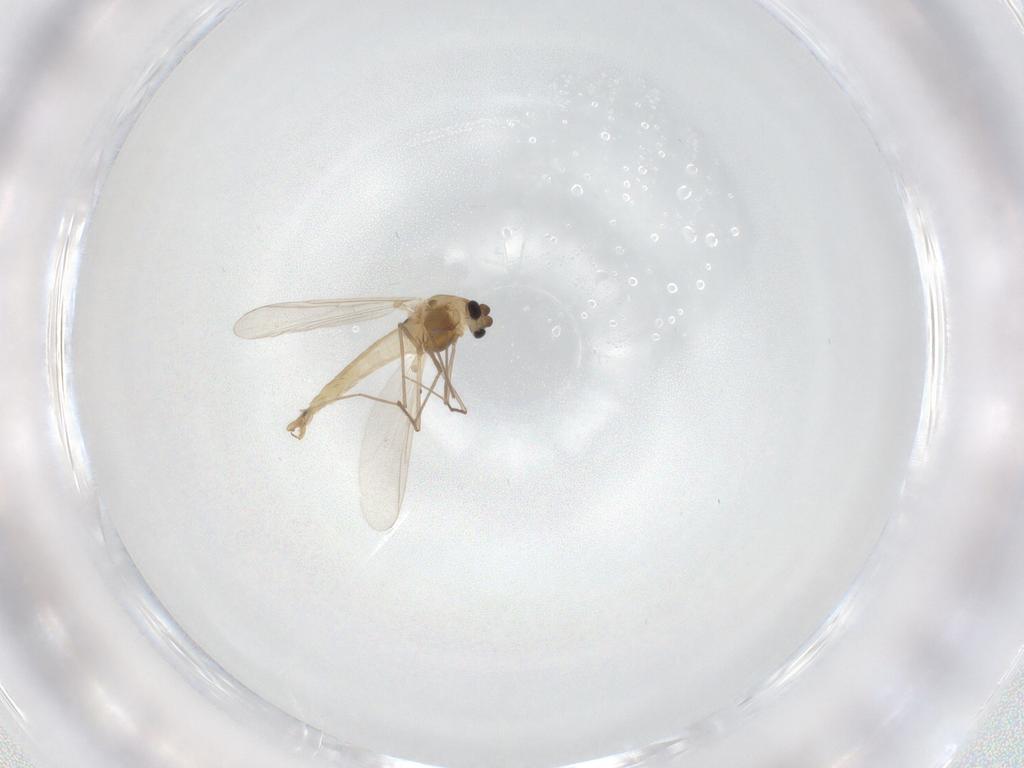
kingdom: Animalia
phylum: Arthropoda
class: Insecta
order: Diptera
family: Chironomidae
